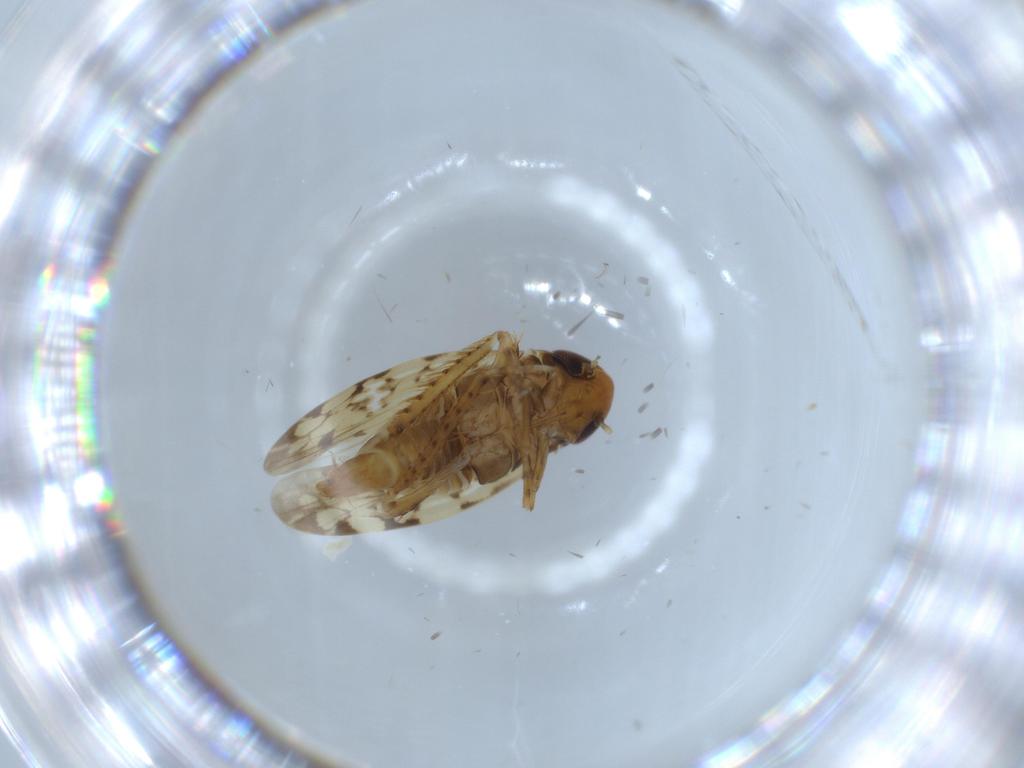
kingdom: Animalia
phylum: Arthropoda
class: Insecta
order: Hemiptera
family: Cicadellidae
